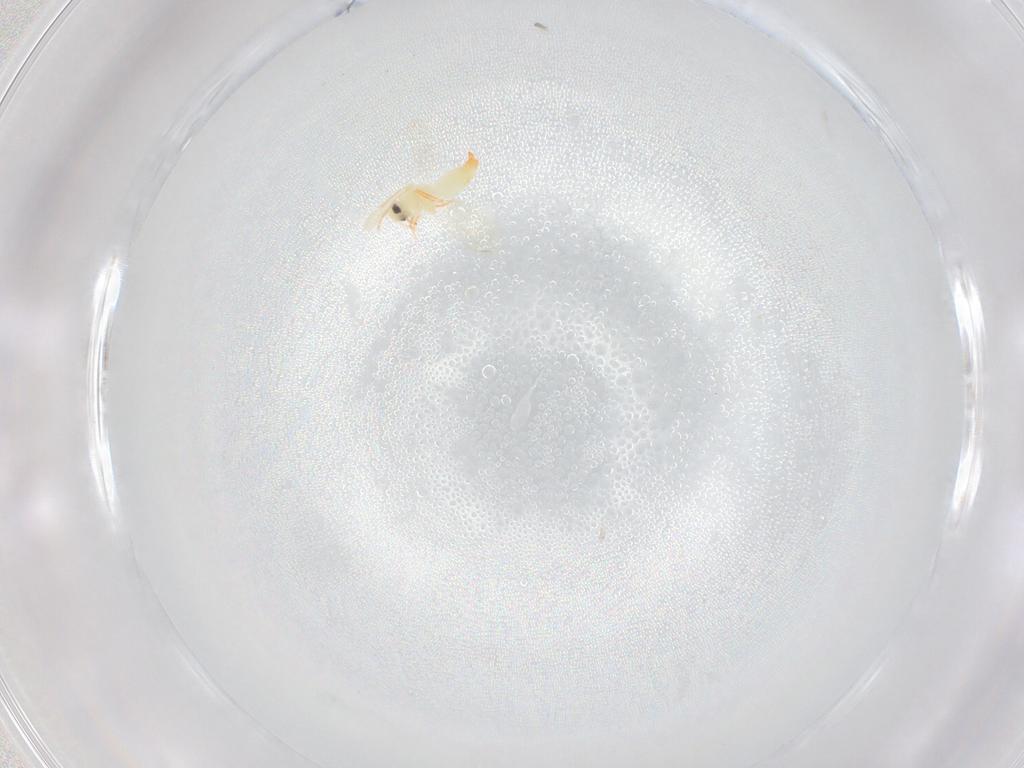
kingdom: Animalia
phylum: Arthropoda
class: Insecta
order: Hemiptera
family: Aleyrodidae
